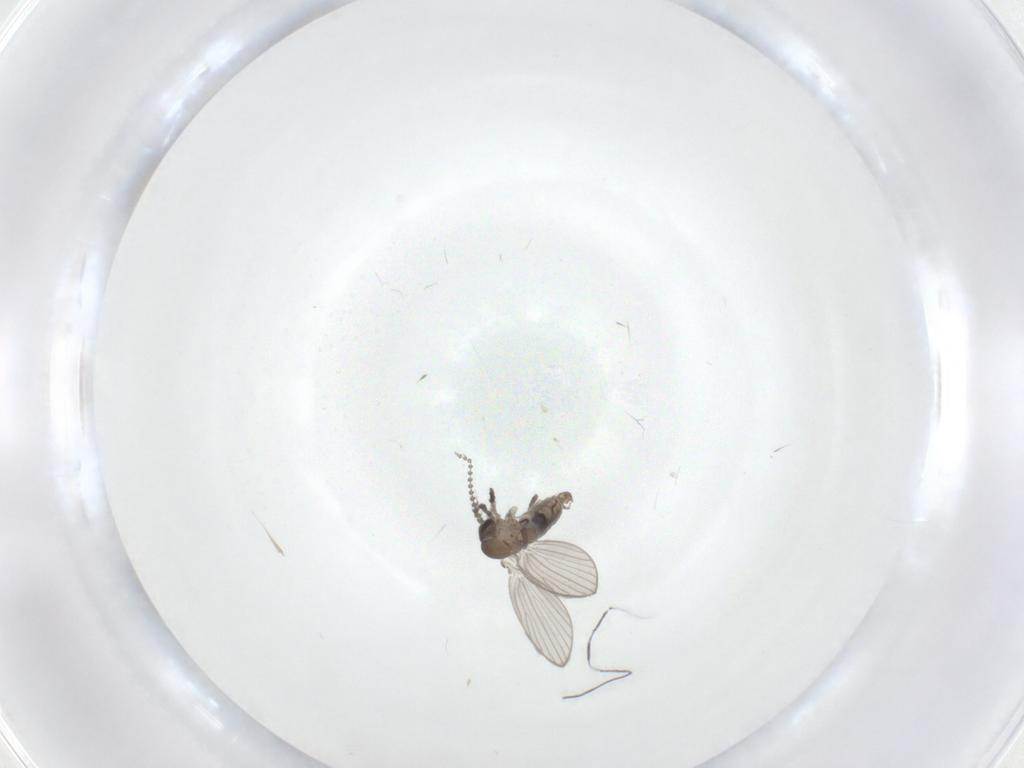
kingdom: Animalia
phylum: Arthropoda
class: Insecta
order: Diptera
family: Psychodidae
